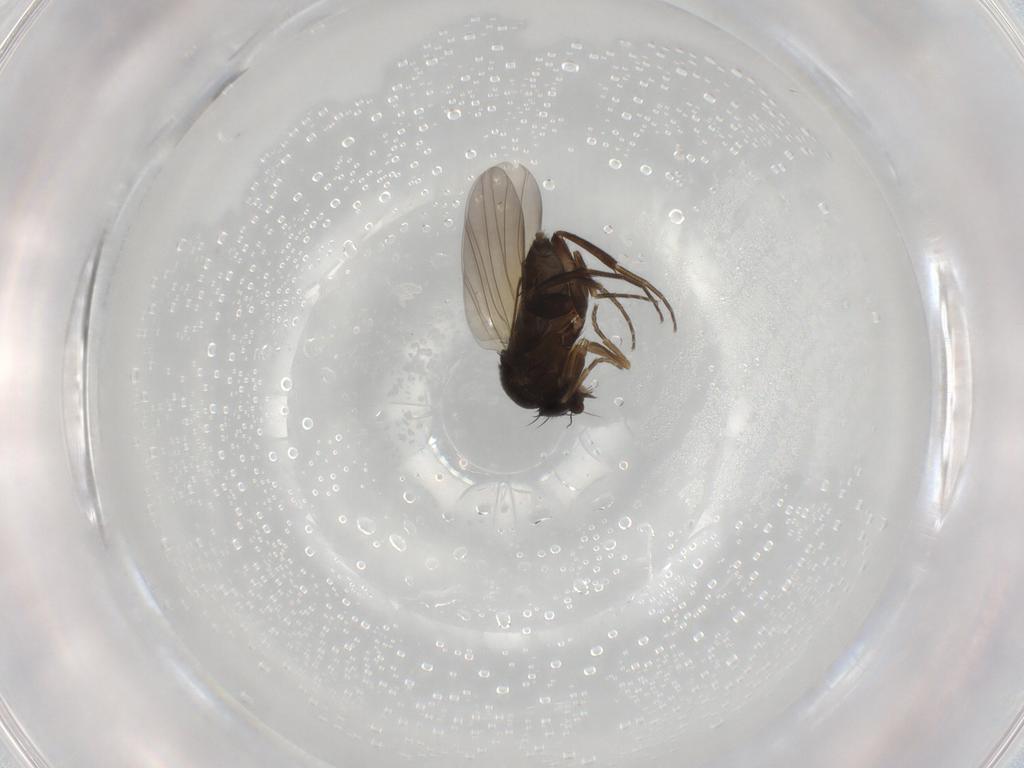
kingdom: Animalia
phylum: Arthropoda
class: Insecta
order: Diptera
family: Phoridae
